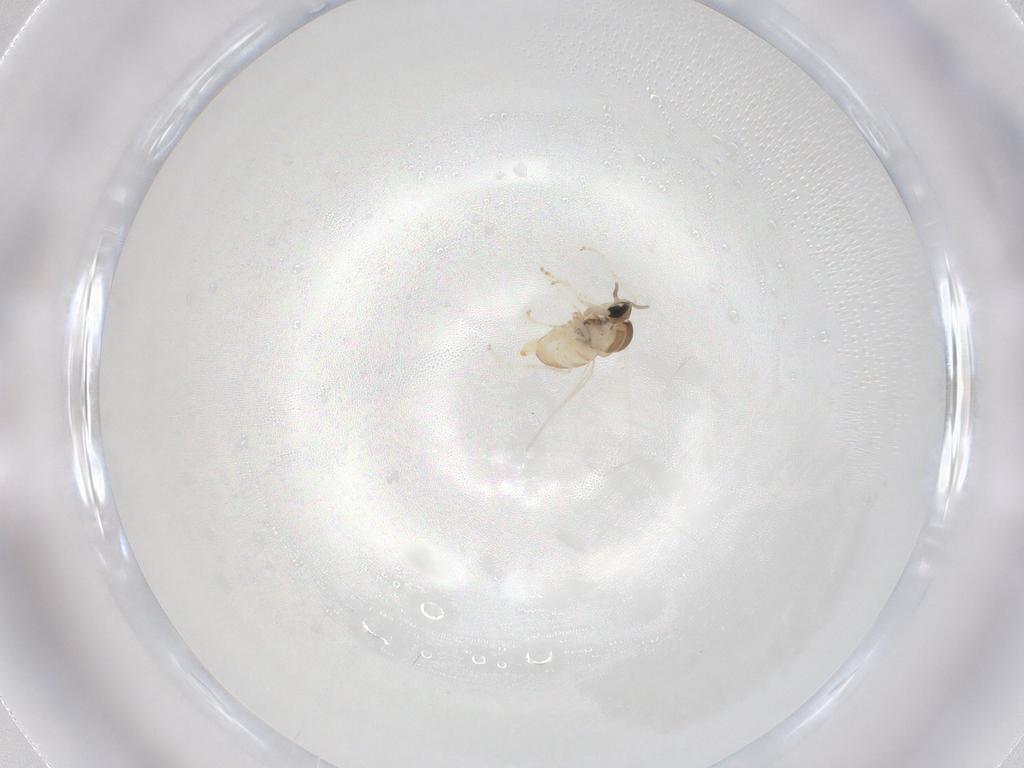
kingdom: Animalia
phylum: Arthropoda
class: Insecta
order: Diptera
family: Cecidomyiidae
